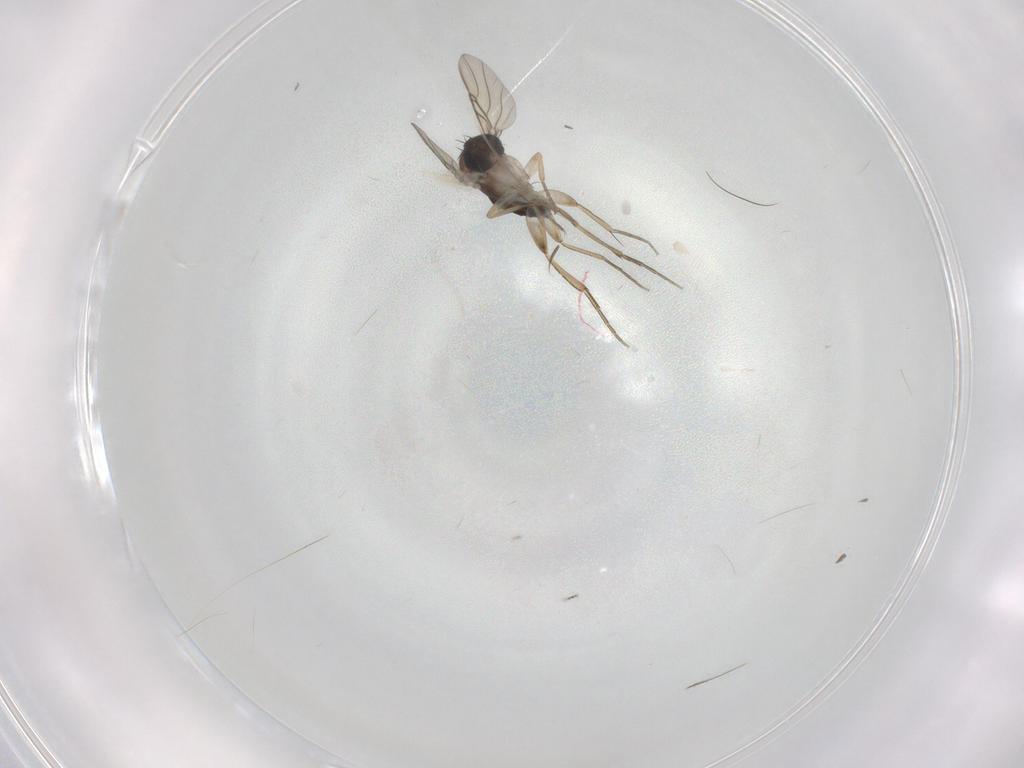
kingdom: Animalia
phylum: Arthropoda
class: Insecta
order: Diptera
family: Phoridae
